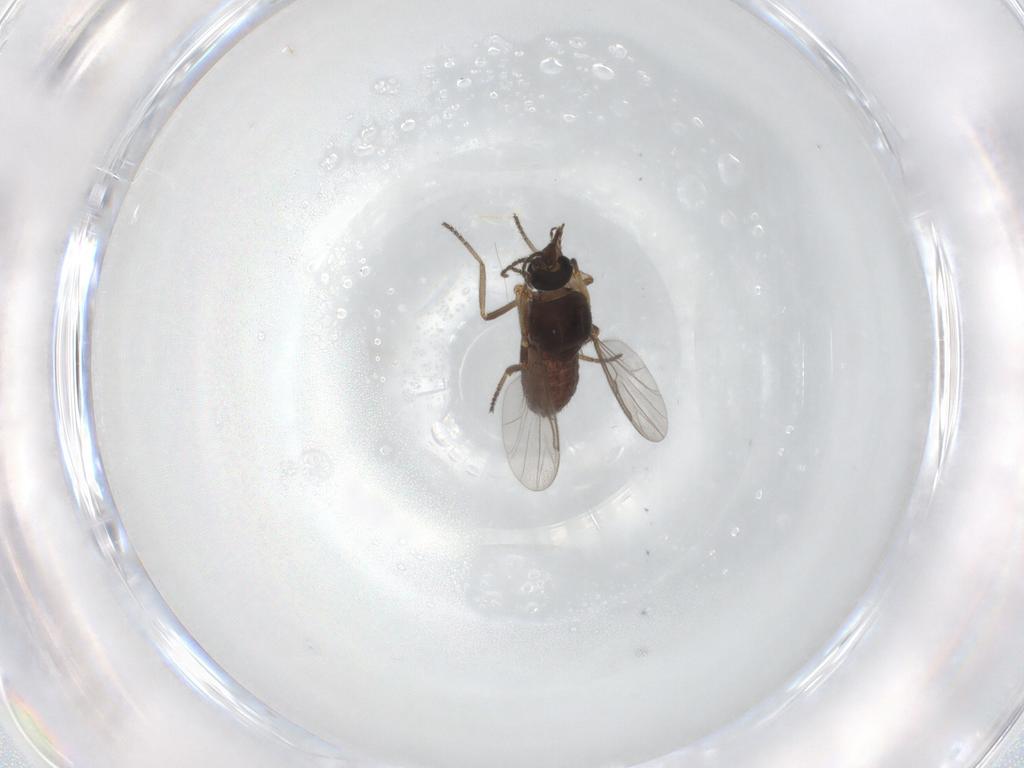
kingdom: Animalia
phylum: Arthropoda
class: Insecta
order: Diptera
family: Ceratopogonidae
